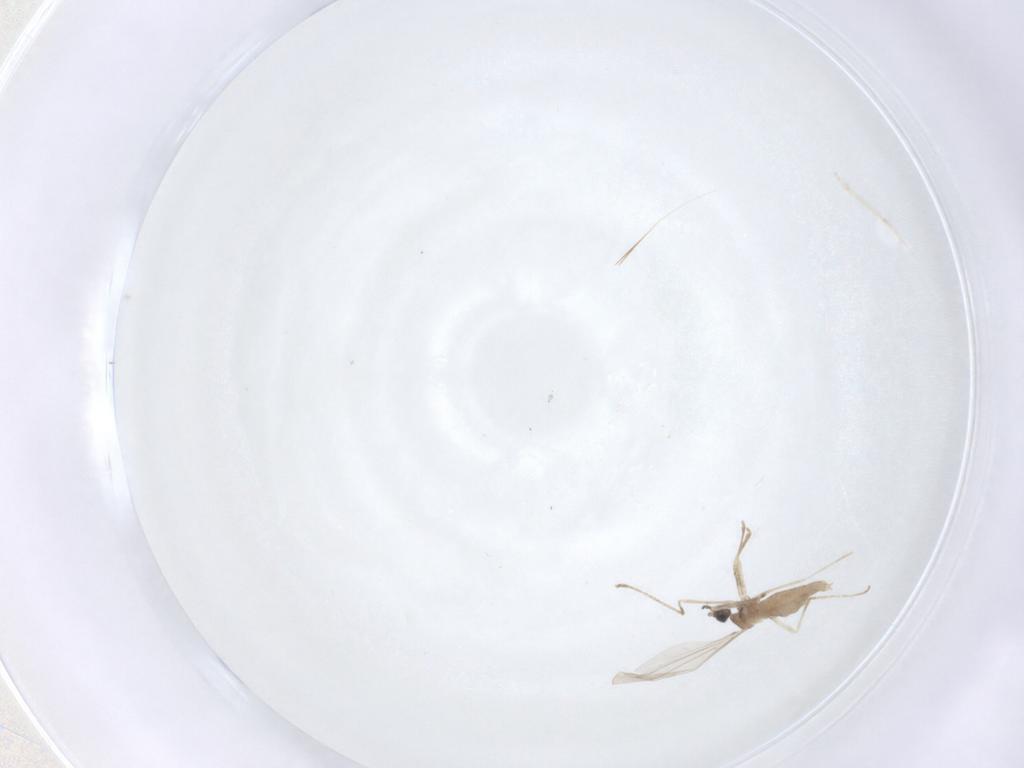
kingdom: Animalia
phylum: Arthropoda
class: Insecta
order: Diptera
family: Cecidomyiidae
